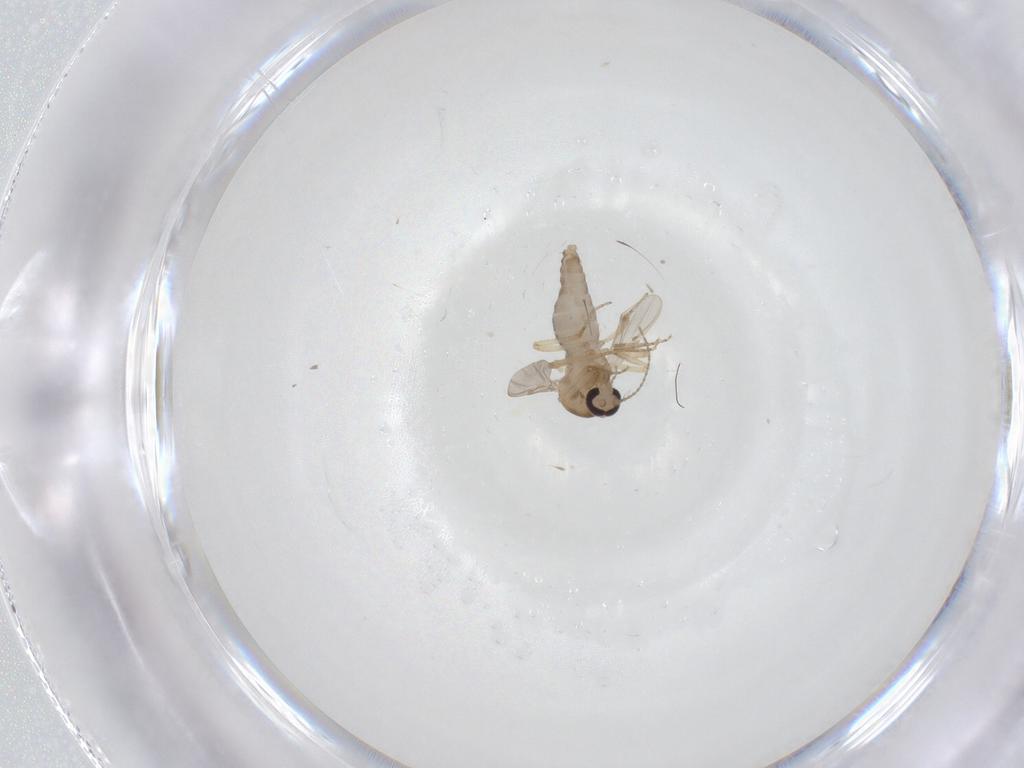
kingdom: Animalia
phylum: Arthropoda
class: Insecta
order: Diptera
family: Ceratopogonidae
